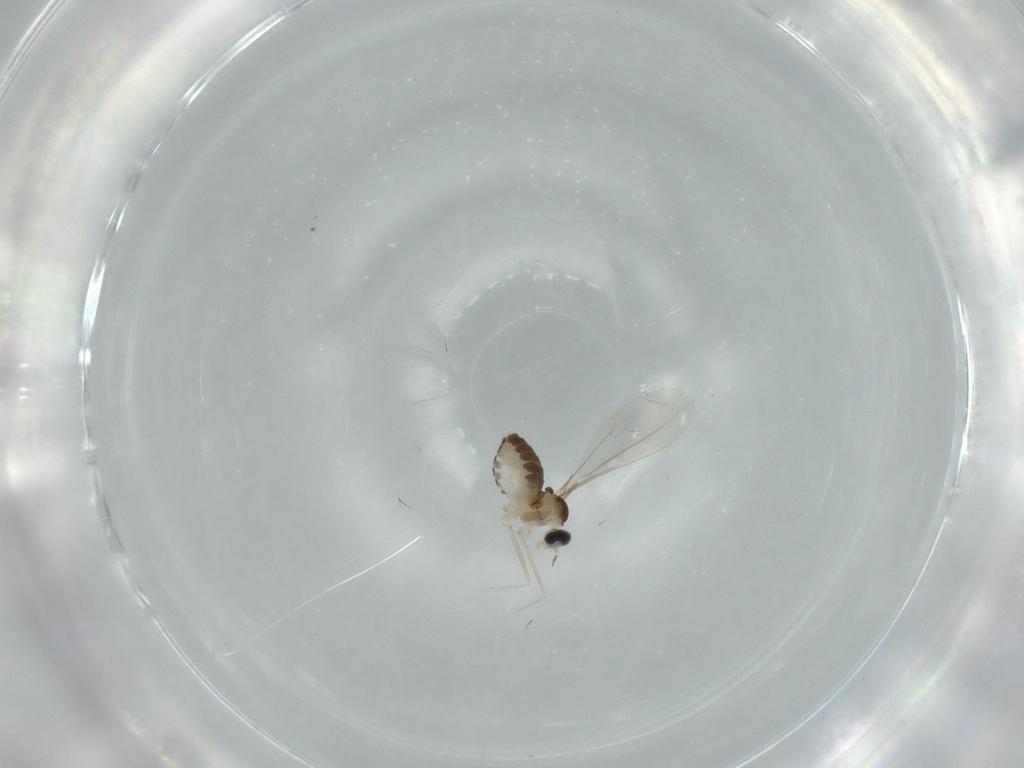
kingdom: Animalia
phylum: Arthropoda
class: Insecta
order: Diptera
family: Cecidomyiidae
